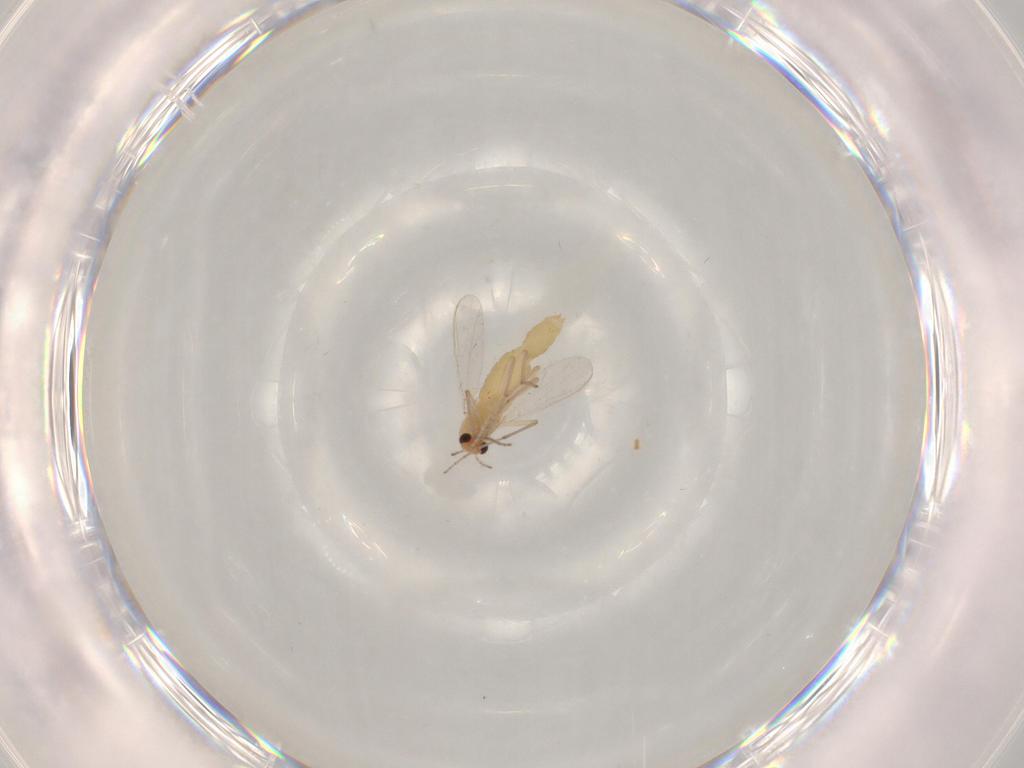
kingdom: Animalia
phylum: Arthropoda
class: Insecta
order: Diptera
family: Chironomidae
